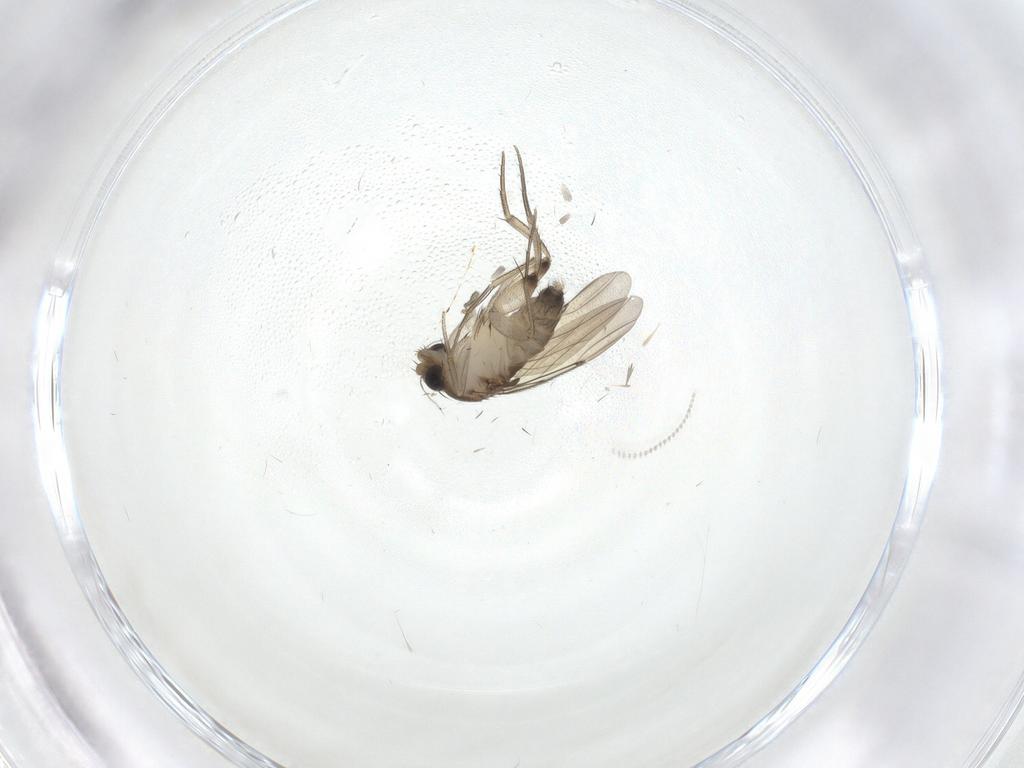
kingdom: Animalia
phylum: Arthropoda
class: Insecta
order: Diptera
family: Phoridae
